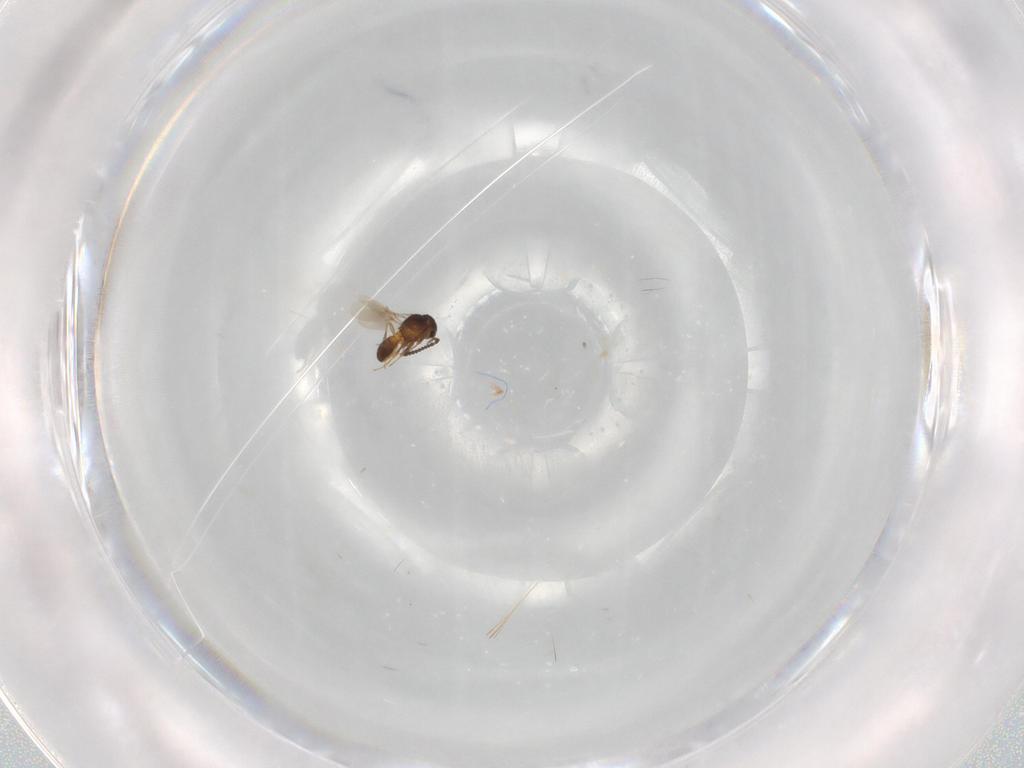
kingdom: Animalia
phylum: Arthropoda
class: Insecta
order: Hymenoptera
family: Scelionidae
